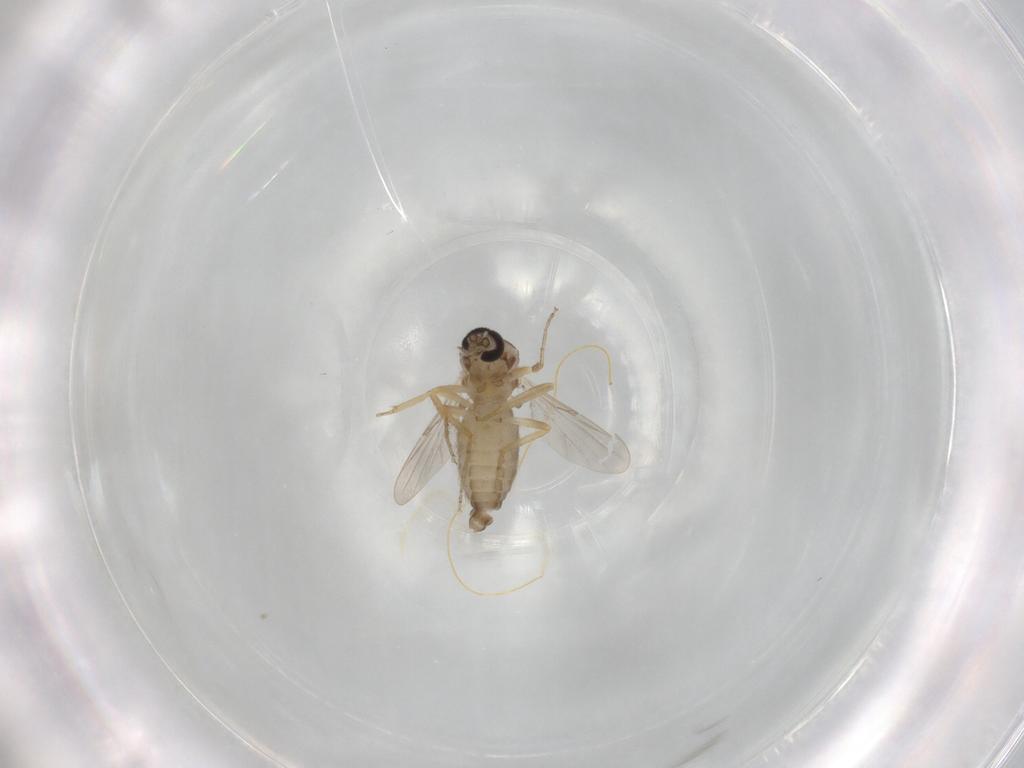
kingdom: Animalia
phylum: Arthropoda
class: Insecta
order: Diptera
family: Ceratopogonidae
